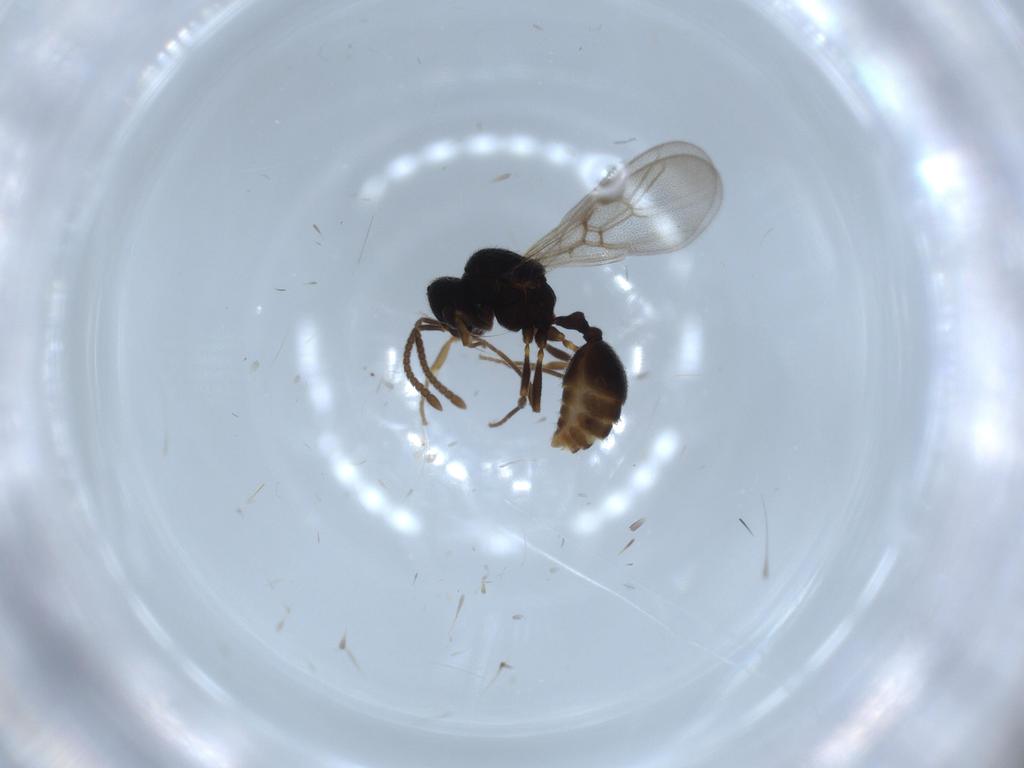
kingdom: Animalia
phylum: Arthropoda
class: Insecta
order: Hymenoptera
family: Formicidae
